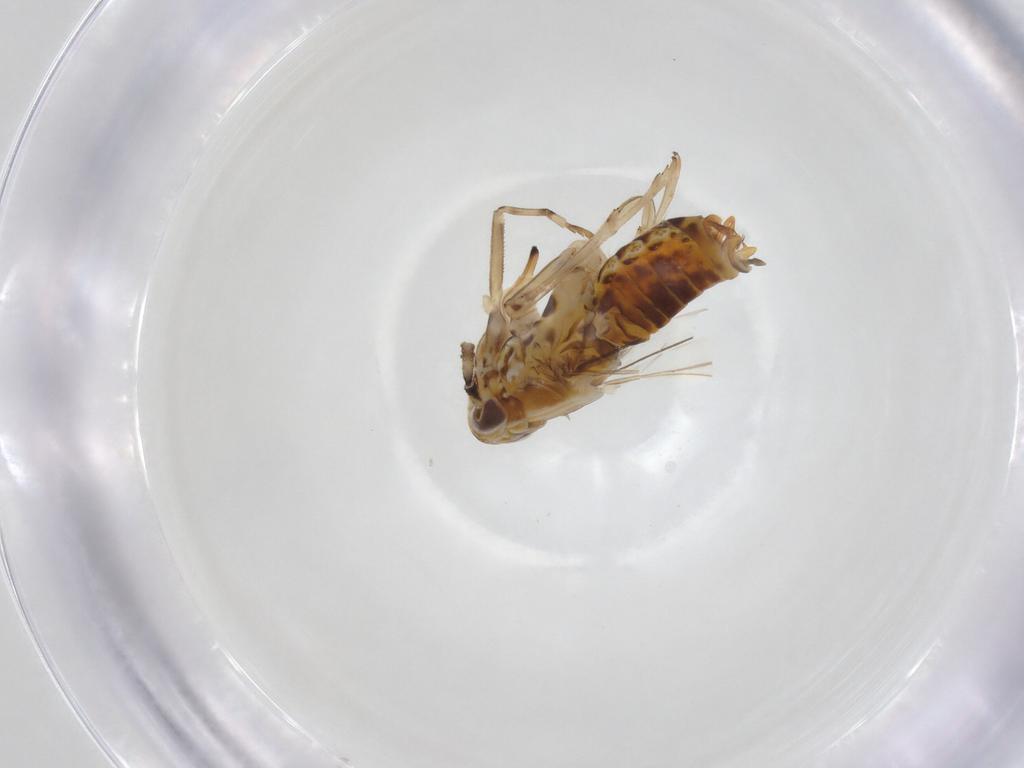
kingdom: Animalia
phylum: Arthropoda
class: Insecta
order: Hemiptera
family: Delphacidae
